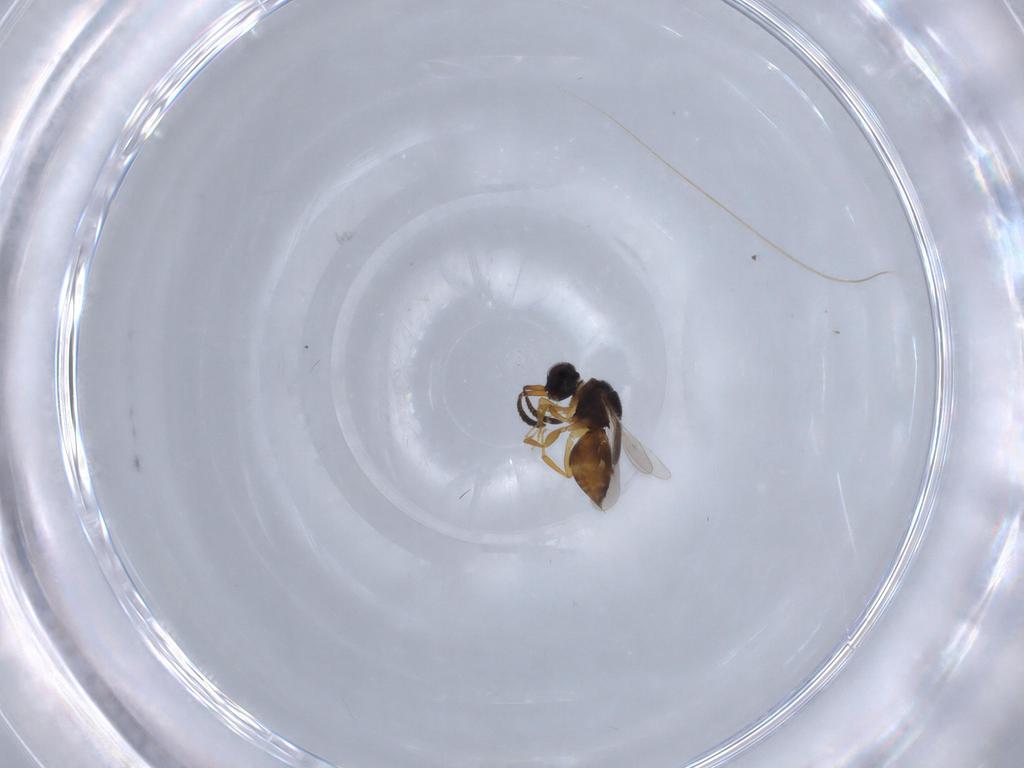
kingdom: Animalia
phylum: Arthropoda
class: Insecta
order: Hymenoptera
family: Ceraphronidae
